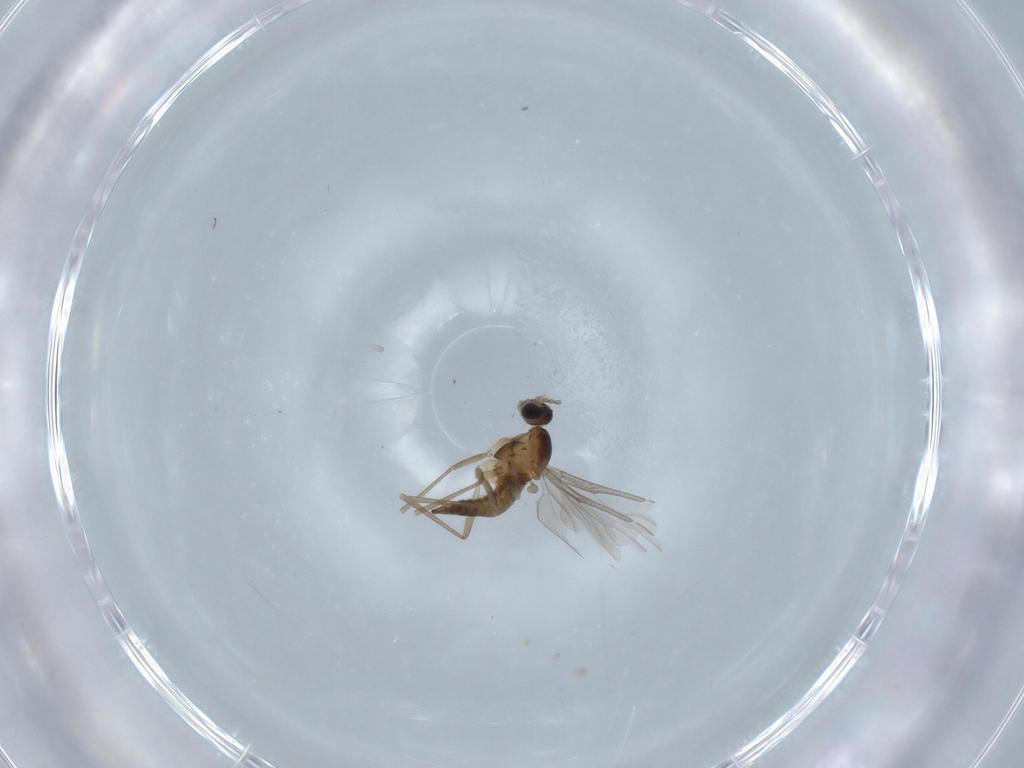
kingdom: Animalia
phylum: Arthropoda
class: Insecta
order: Diptera
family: Cecidomyiidae
